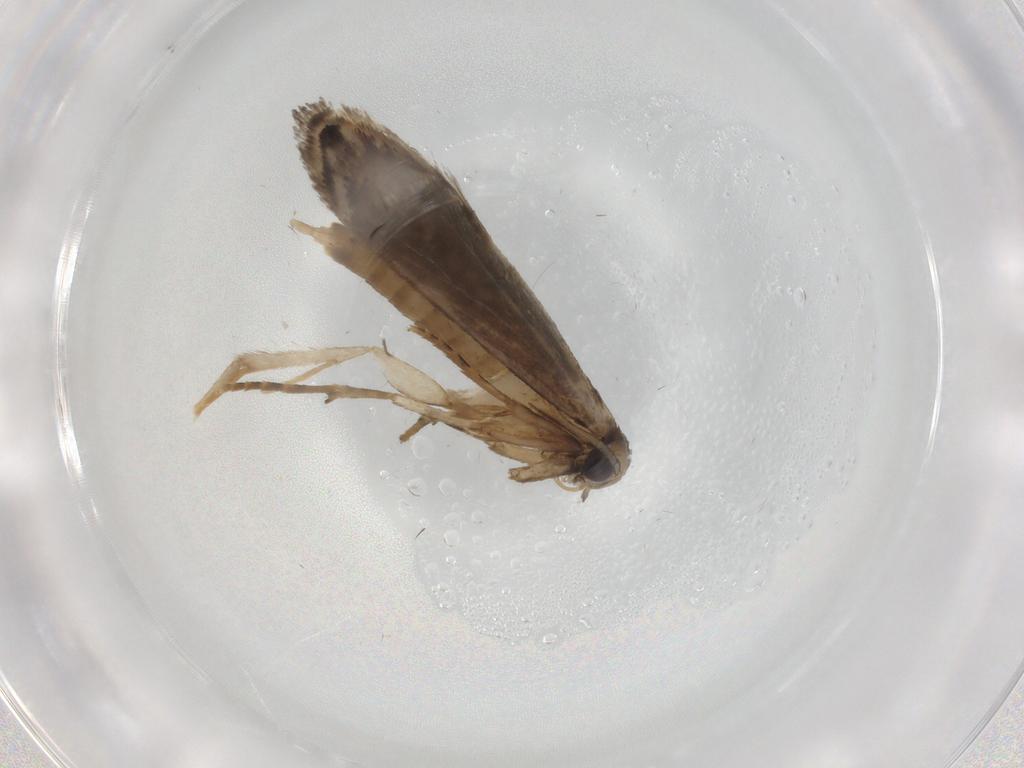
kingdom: Animalia
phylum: Arthropoda
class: Insecta
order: Lepidoptera
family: Tineidae
